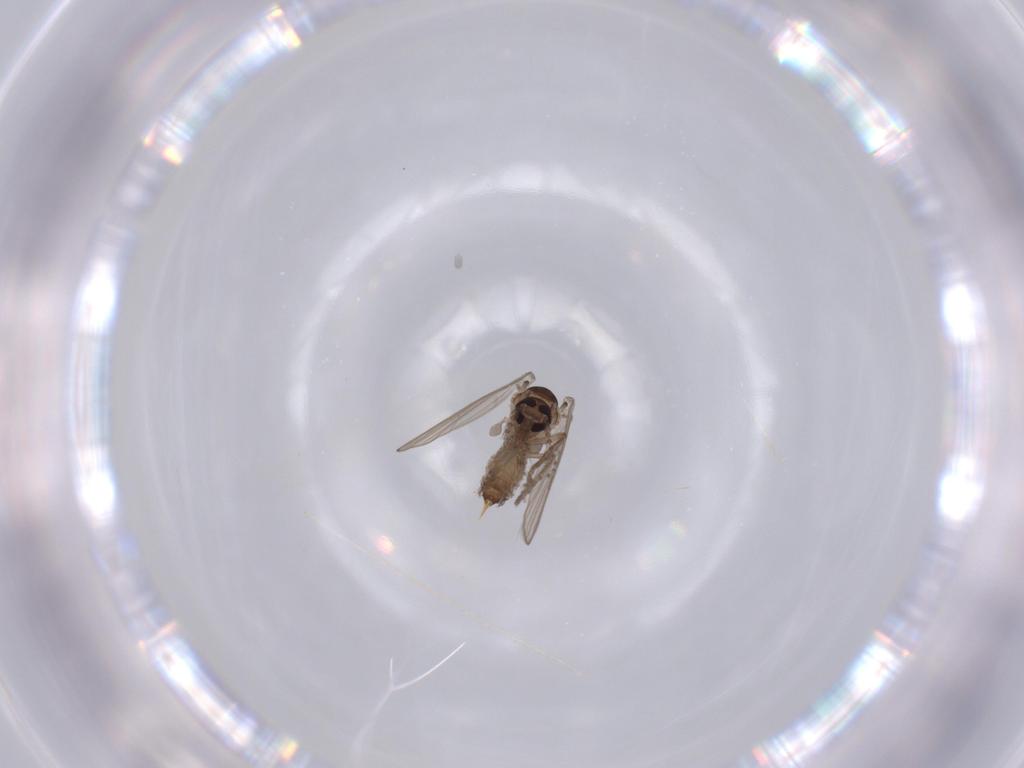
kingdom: Animalia
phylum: Arthropoda
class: Insecta
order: Diptera
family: Psychodidae
